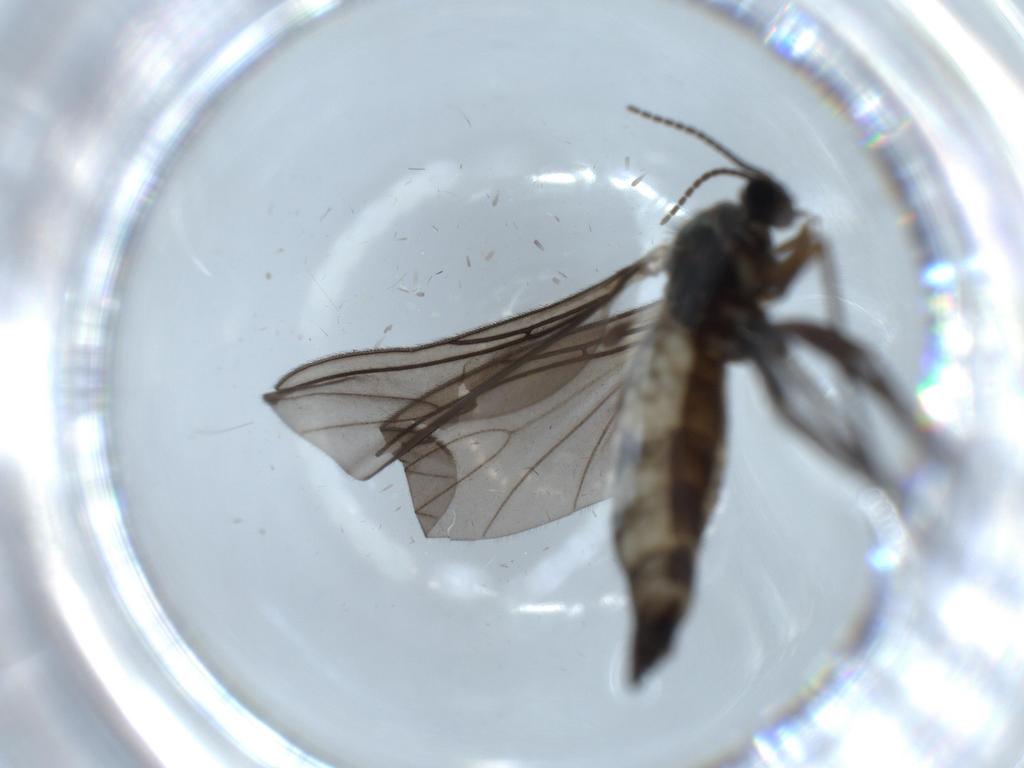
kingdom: Animalia
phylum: Arthropoda
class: Insecta
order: Diptera
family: Sciaridae
